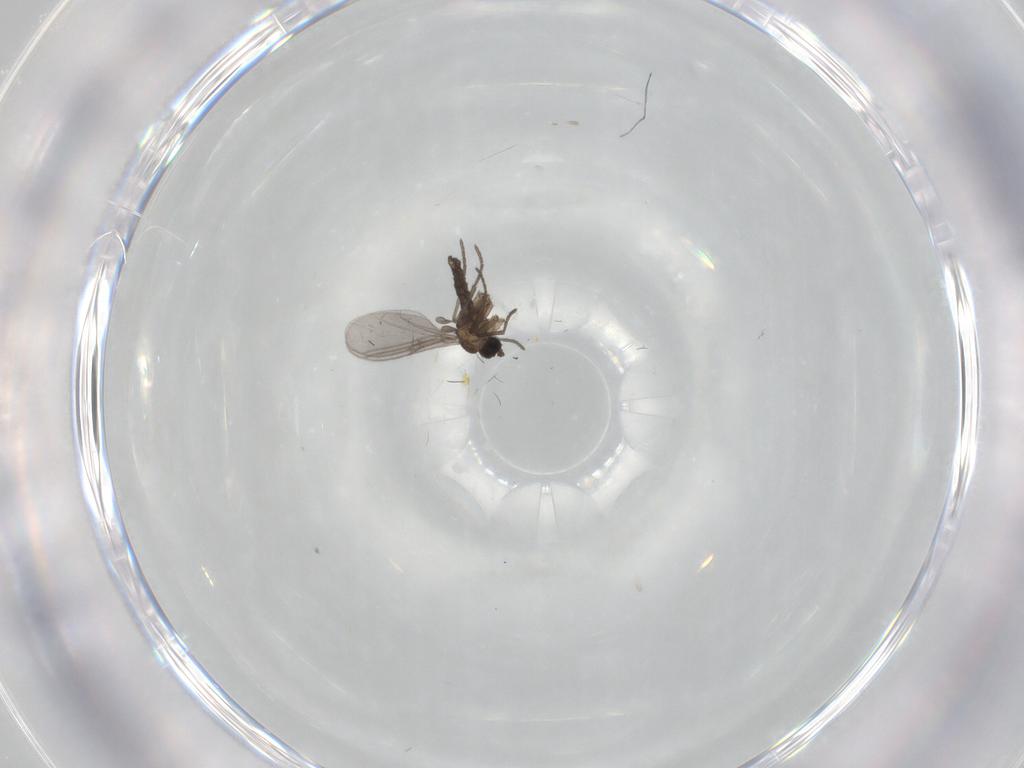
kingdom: Animalia
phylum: Arthropoda
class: Insecta
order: Diptera
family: Sciaridae
